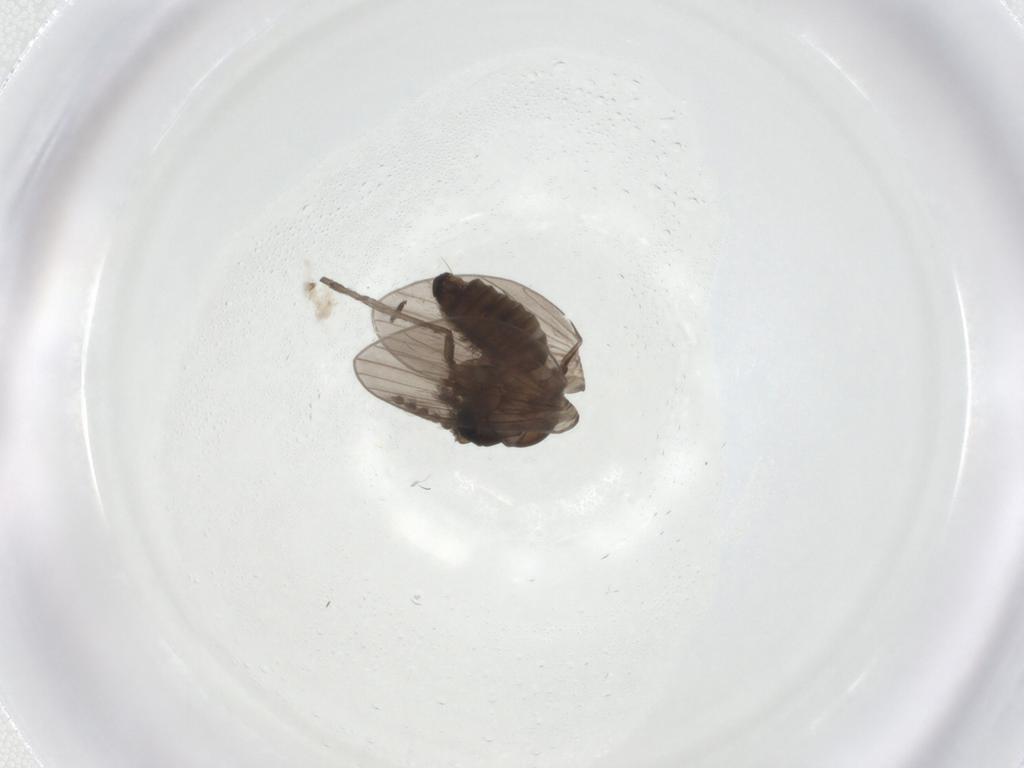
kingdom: Animalia
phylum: Arthropoda
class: Insecta
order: Diptera
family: Psychodidae
